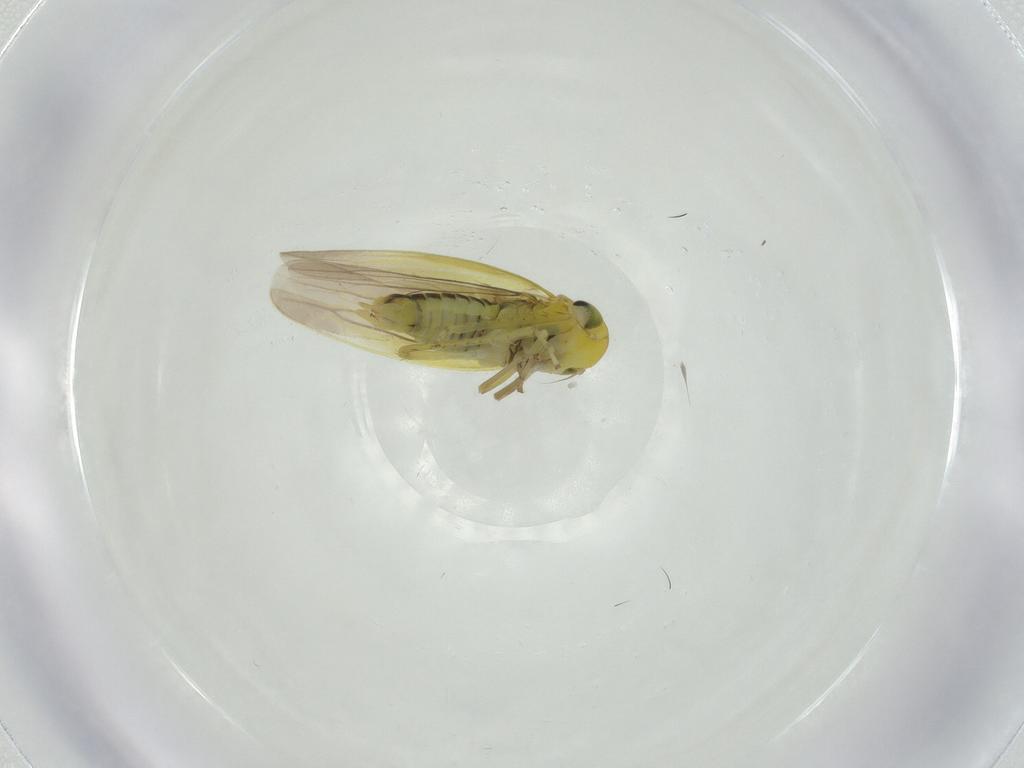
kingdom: Animalia
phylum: Arthropoda
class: Insecta
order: Hemiptera
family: Cicadellidae
